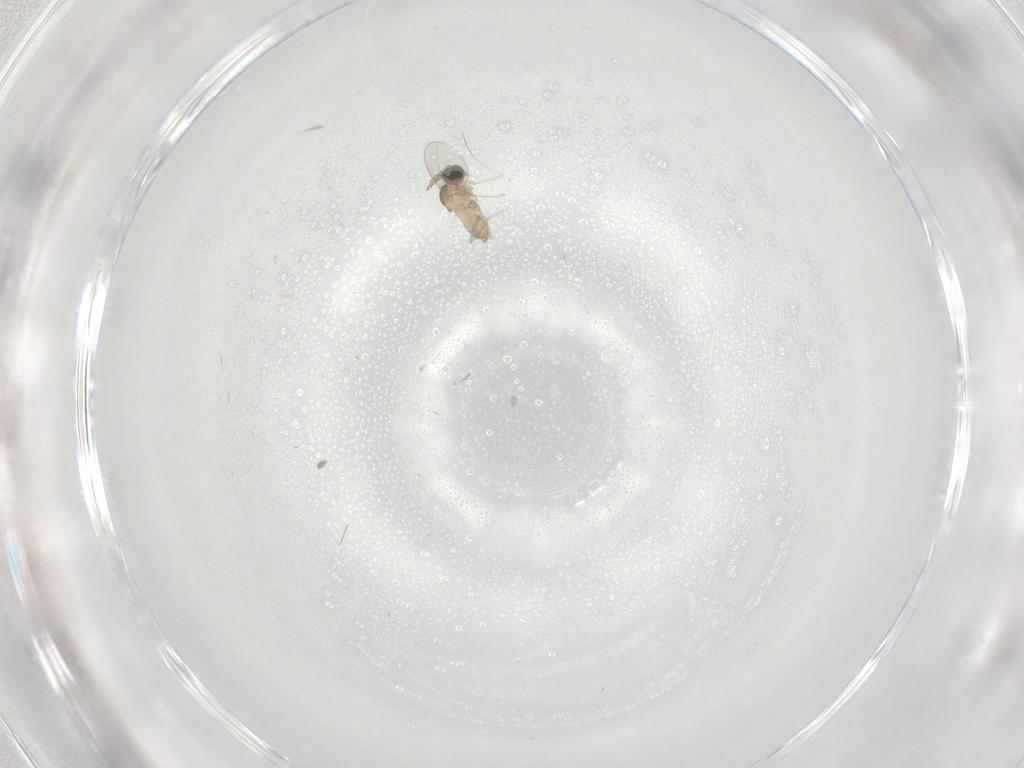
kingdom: Animalia
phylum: Arthropoda
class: Insecta
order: Diptera
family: Cecidomyiidae
